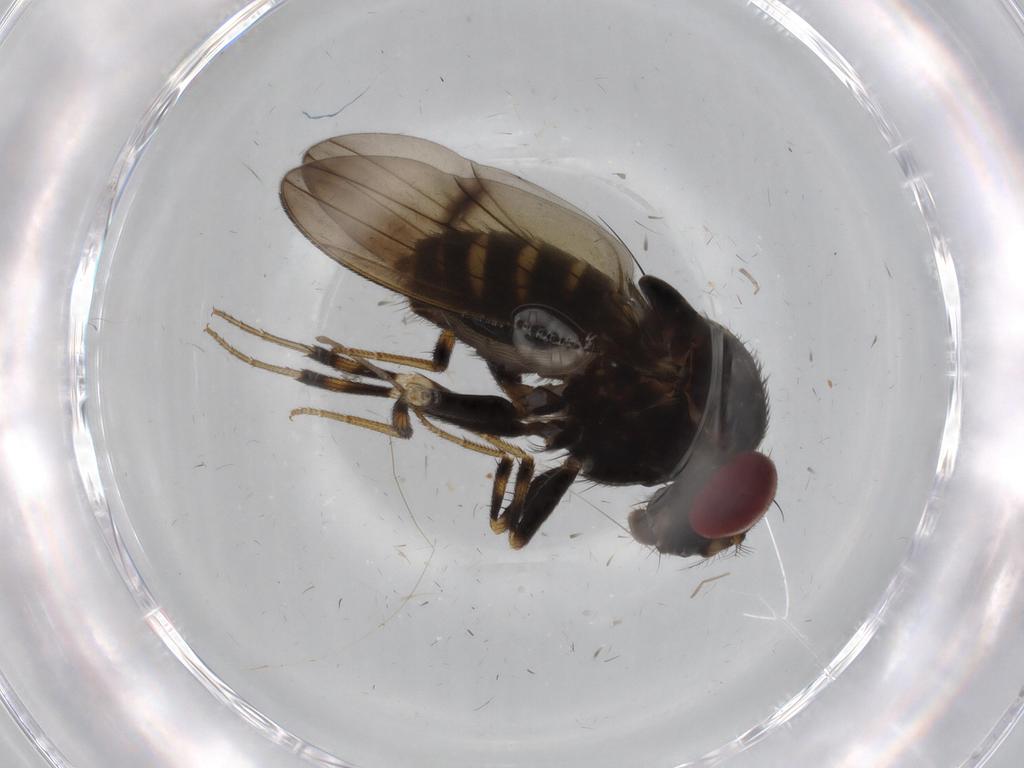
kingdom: Animalia
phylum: Arthropoda
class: Insecta
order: Diptera
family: Drosophilidae
